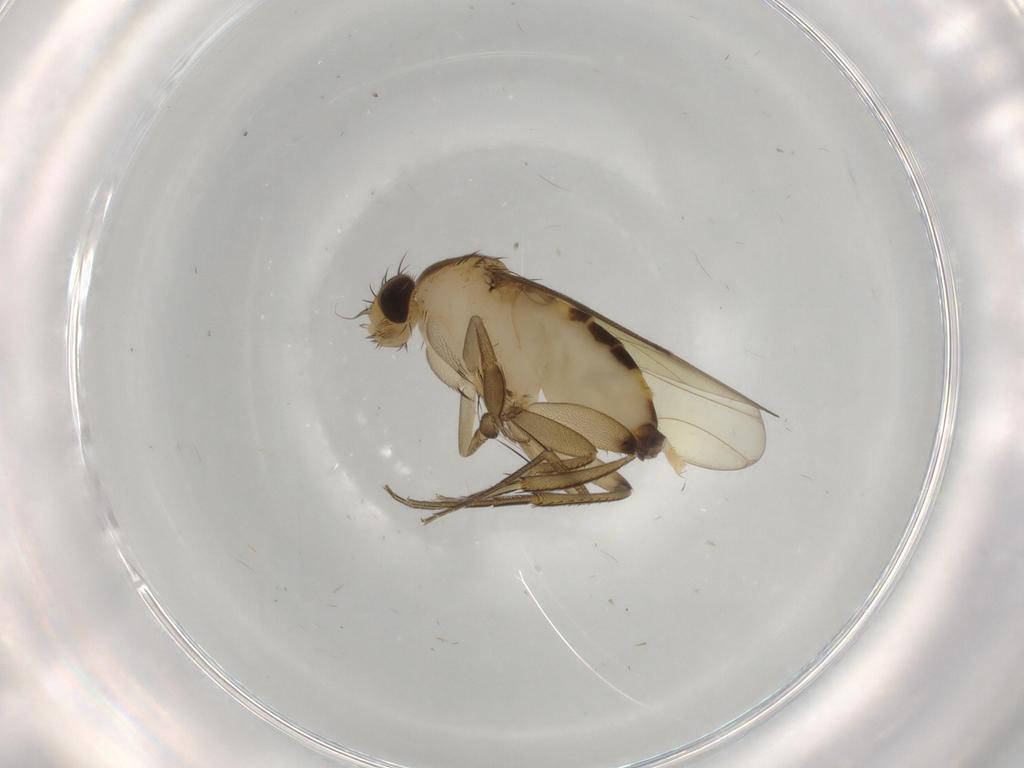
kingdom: Animalia
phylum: Arthropoda
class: Insecta
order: Diptera
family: Phoridae
